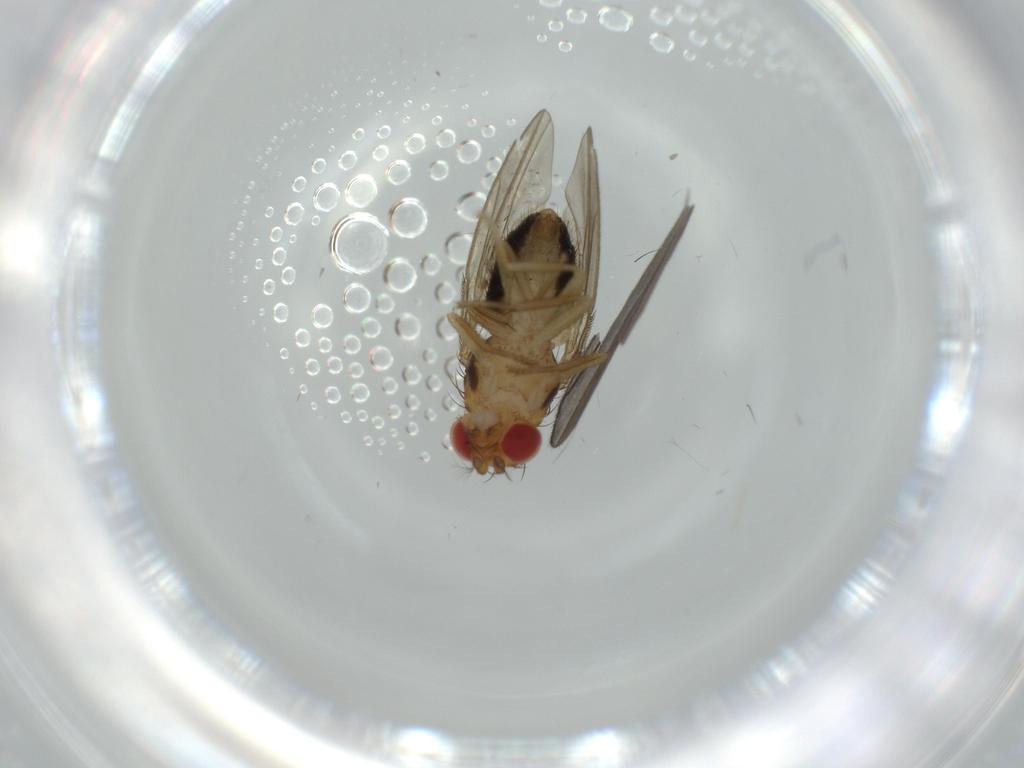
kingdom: Animalia
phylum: Arthropoda
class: Insecta
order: Diptera
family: Drosophilidae
